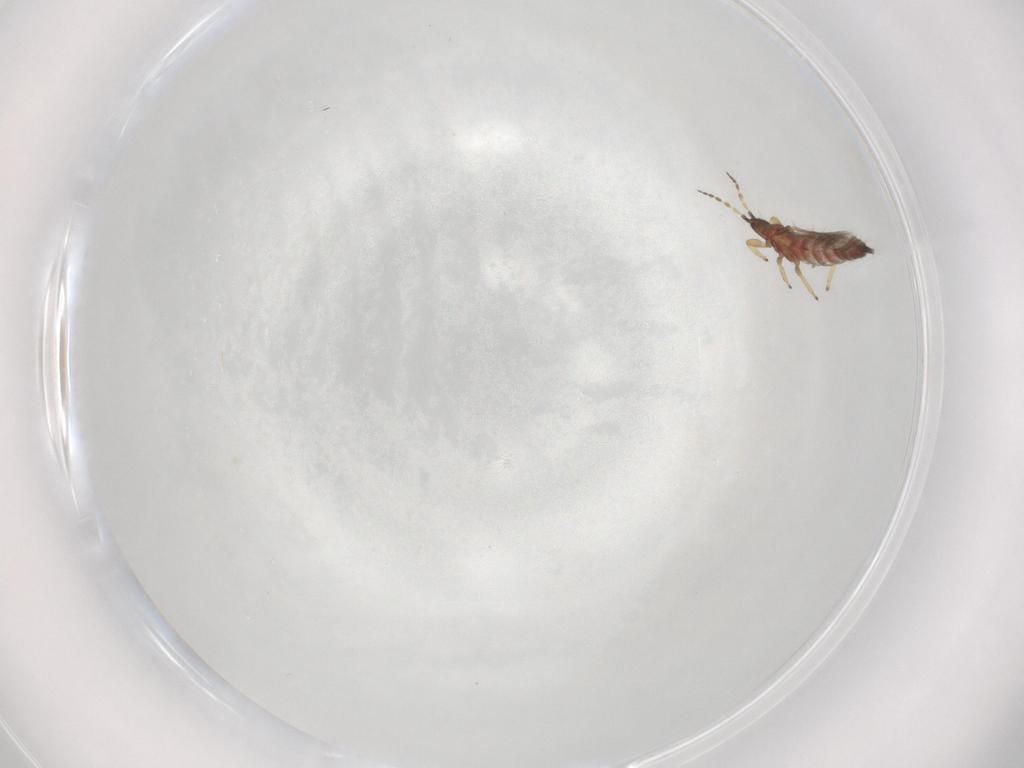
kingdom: Animalia
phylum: Arthropoda
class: Insecta
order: Thysanoptera
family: Phlaeothripidae
